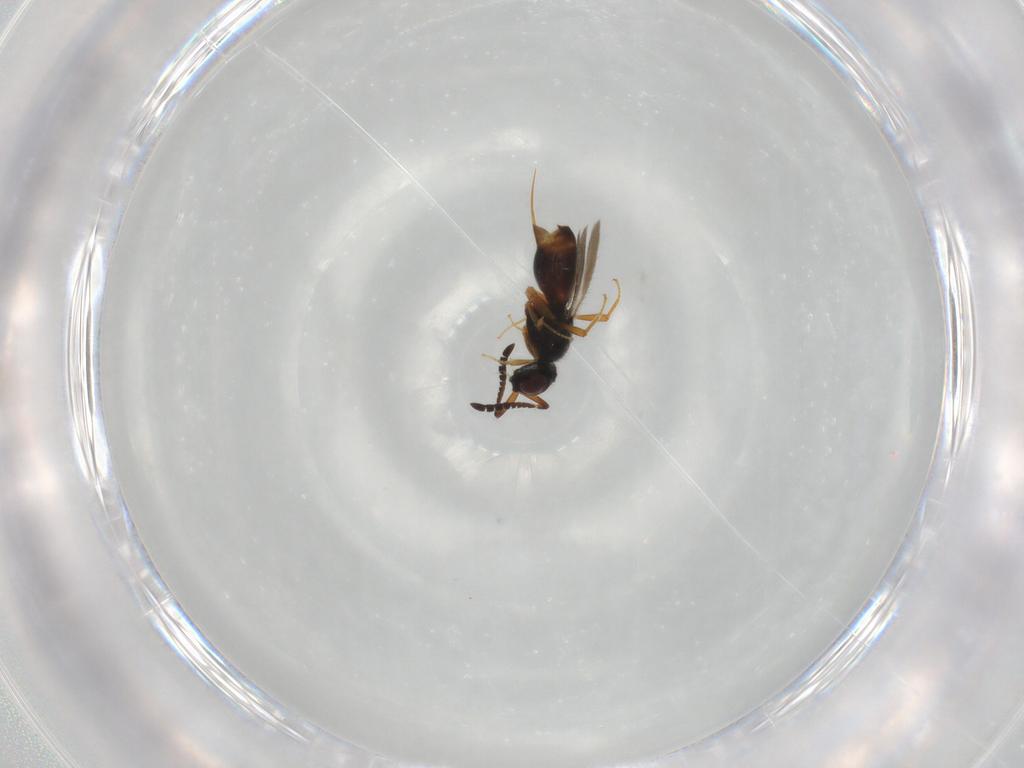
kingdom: Animalia
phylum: Arthropoda
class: Insecta
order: Hymenoptera
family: Ceraphronidae
